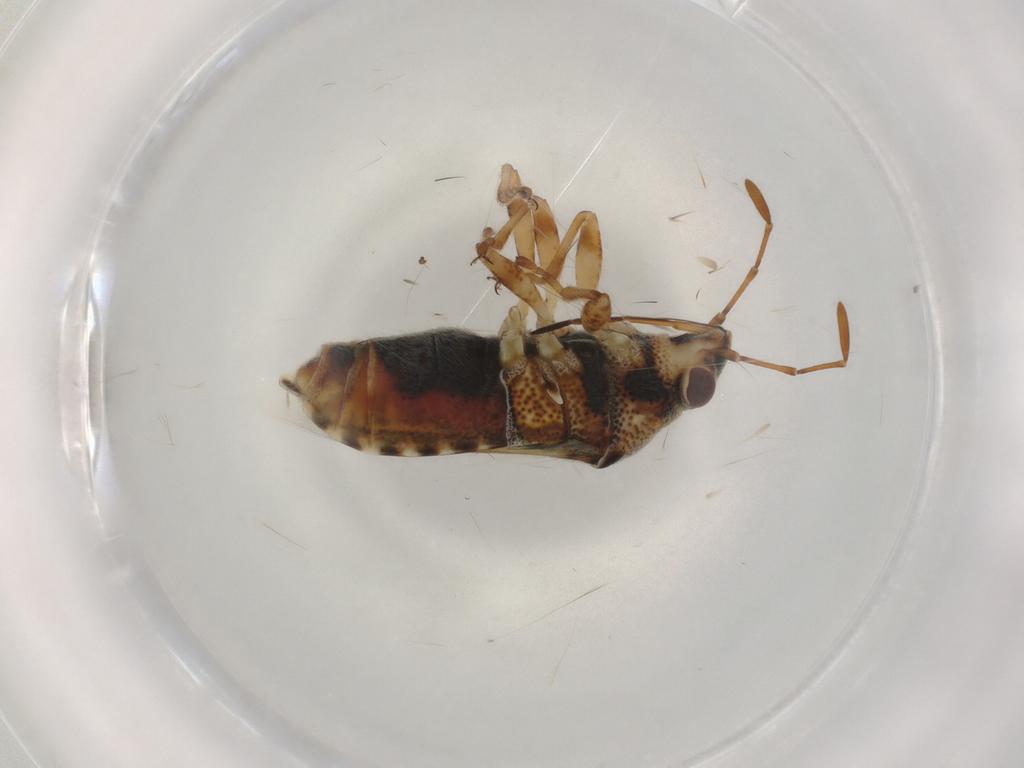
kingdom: Animalia
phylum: Arthropoda
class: Insecta
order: Hemiptera
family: Lygaeidae
